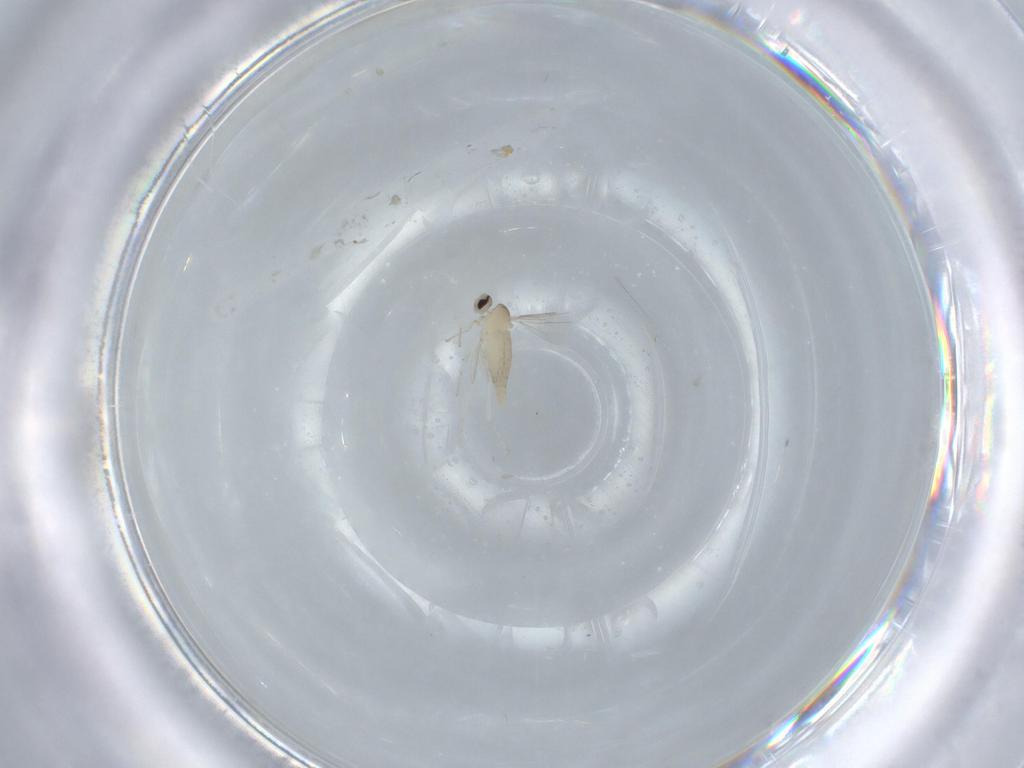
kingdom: Animalia
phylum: Arthropoda
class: Insecta
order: Diptera
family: Cecidomyiidae
